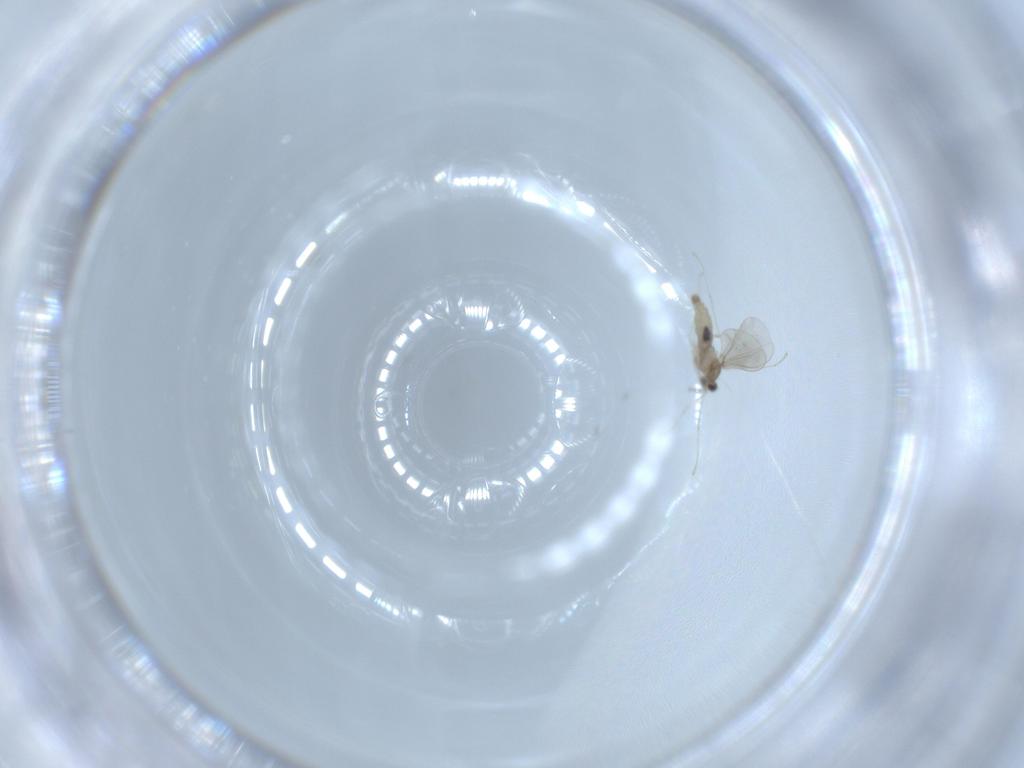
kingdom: Animalia
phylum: Arthropoda
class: Insecta
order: Diptera
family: Cecidomyiidae
